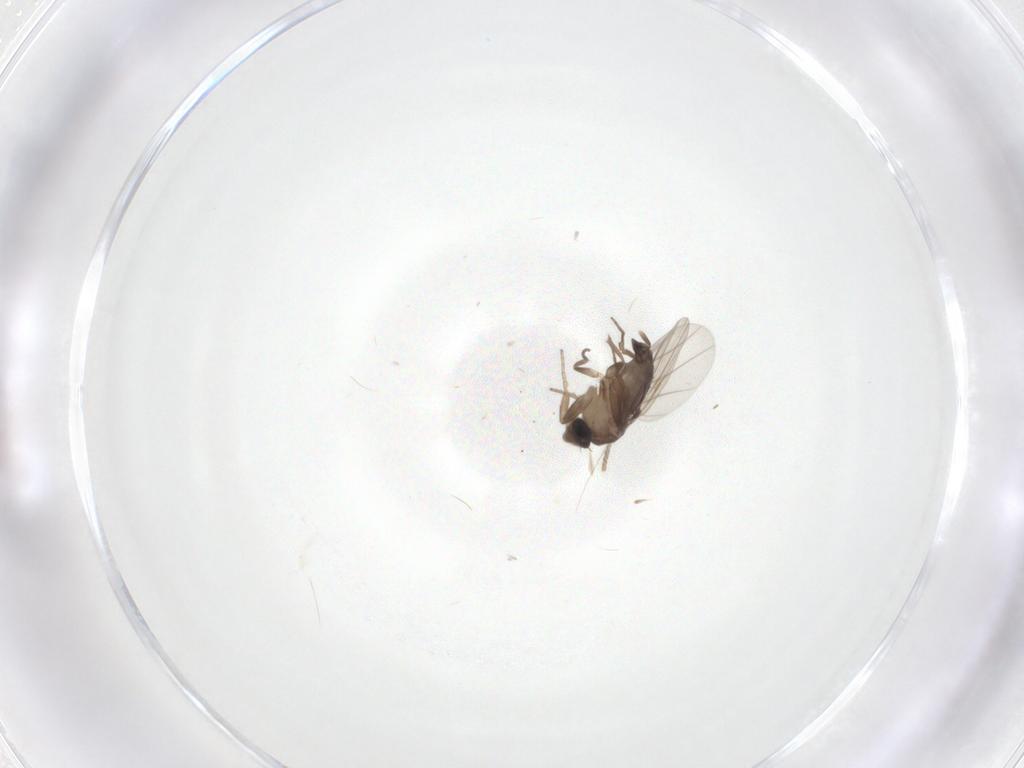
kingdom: Animalia
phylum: Arthropoda
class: Insecta
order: Diptera
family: Phoridae
